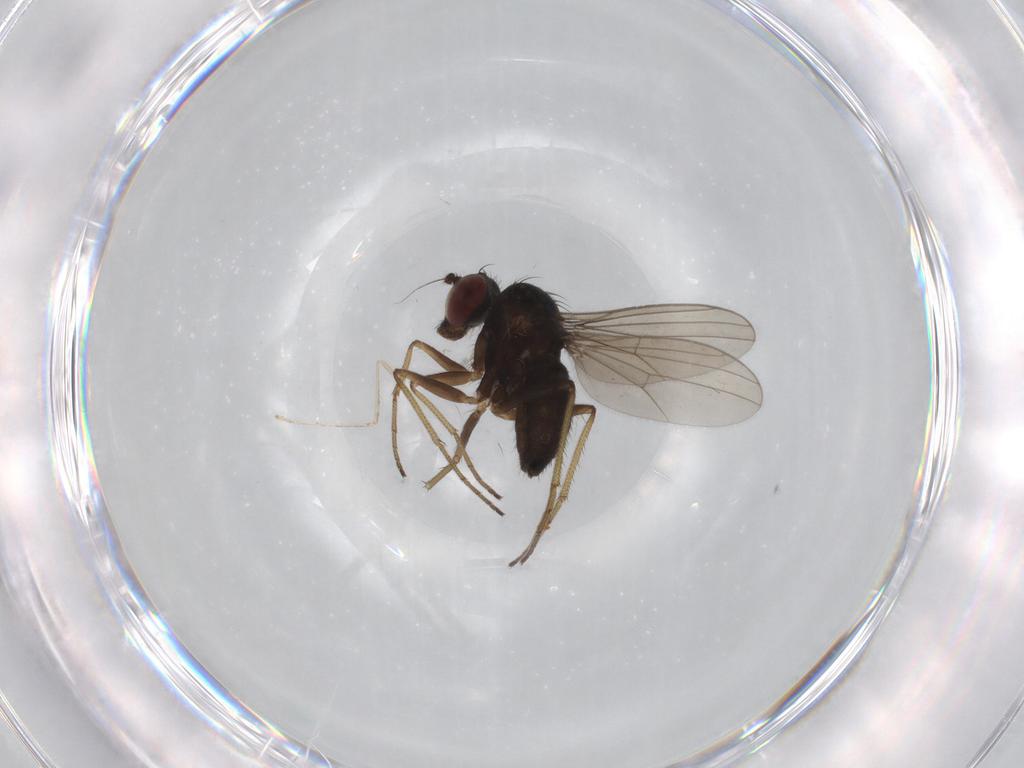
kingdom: Animalia
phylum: Arthropoda
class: Insecta
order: Diptera
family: Dolichopodidae
